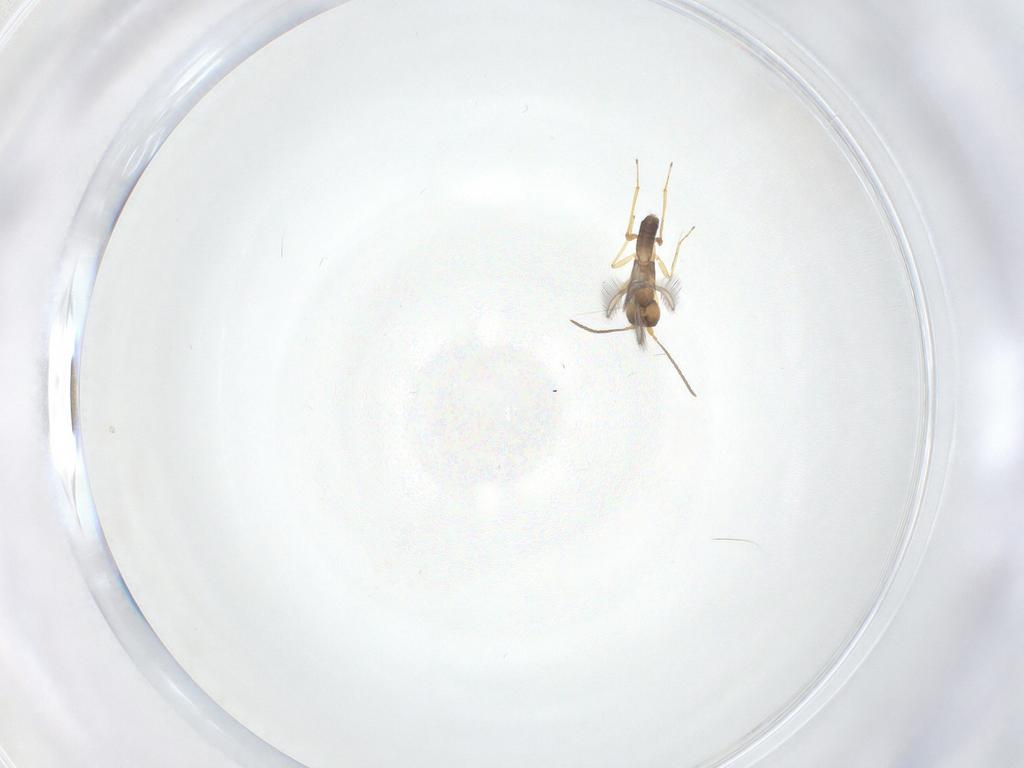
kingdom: Animalia
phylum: Arthropoda
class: Insecta
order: Hymenoptera
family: Mymaridae
